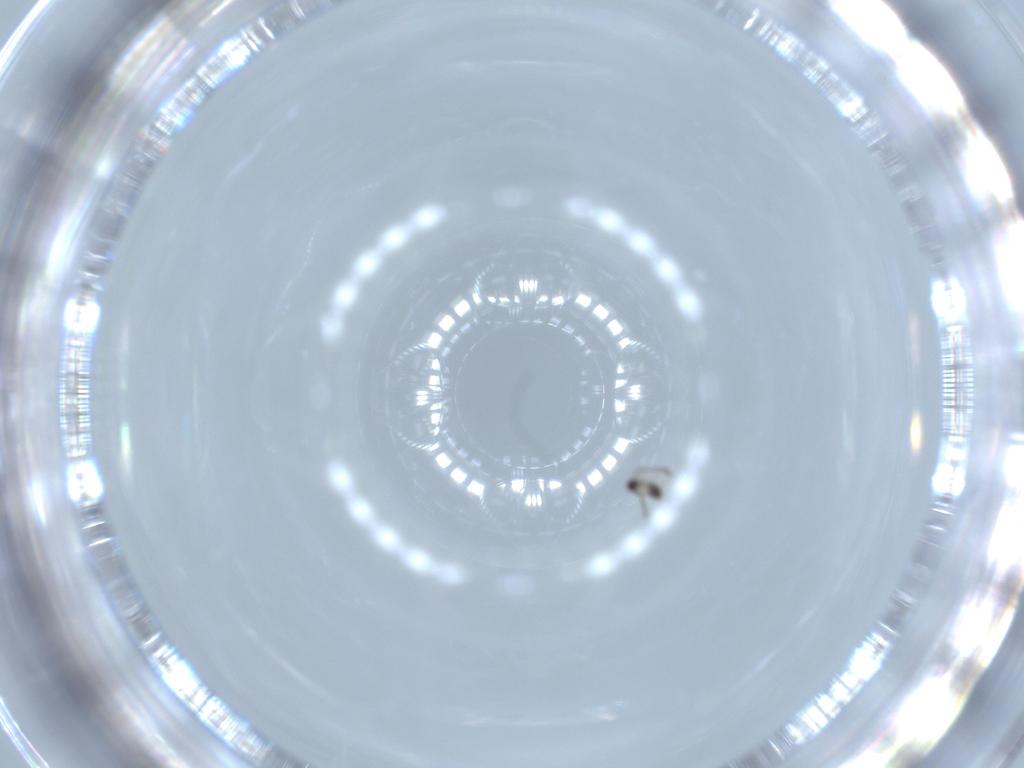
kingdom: Animalia
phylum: Arthropoda
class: Insecta
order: Hymenoptera
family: Mymaridae
